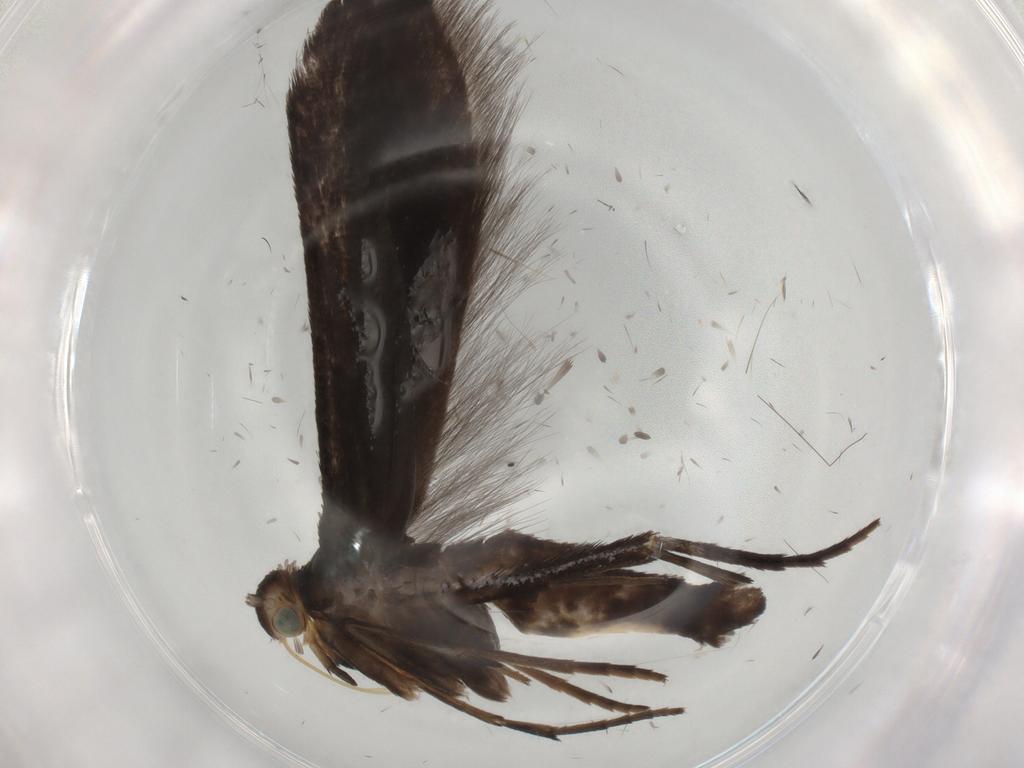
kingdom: Animalia
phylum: Arthropoda
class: Insecta
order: Lepidoptera
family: Schreckensteiniidae
